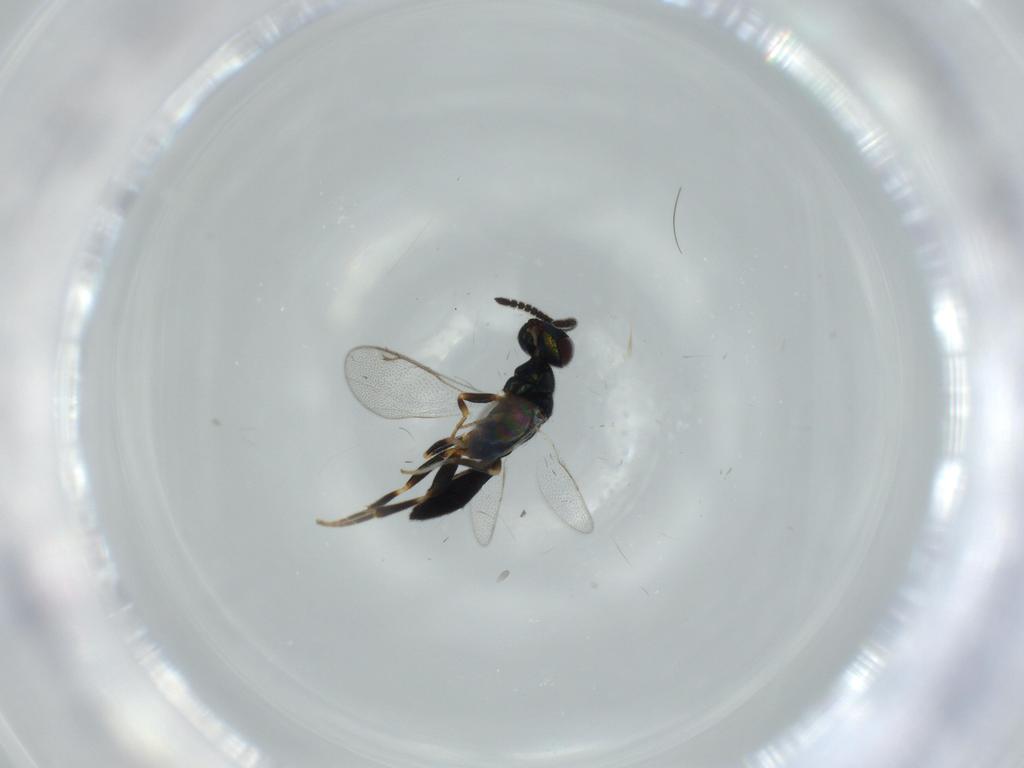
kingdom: Animalia
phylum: Arthropoda
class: Insecta
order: Hymenoptera
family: Cleonyminae
